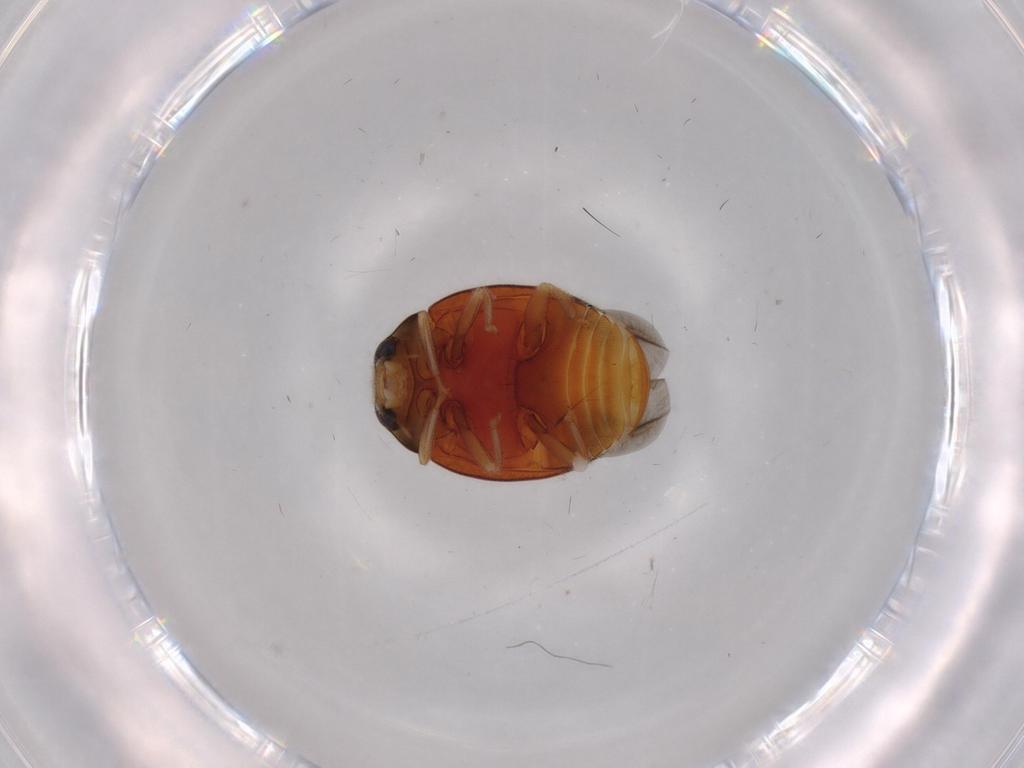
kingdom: Animalia
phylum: Arthropoda
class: Insecta
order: Coleoptera
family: Coccinellidae
